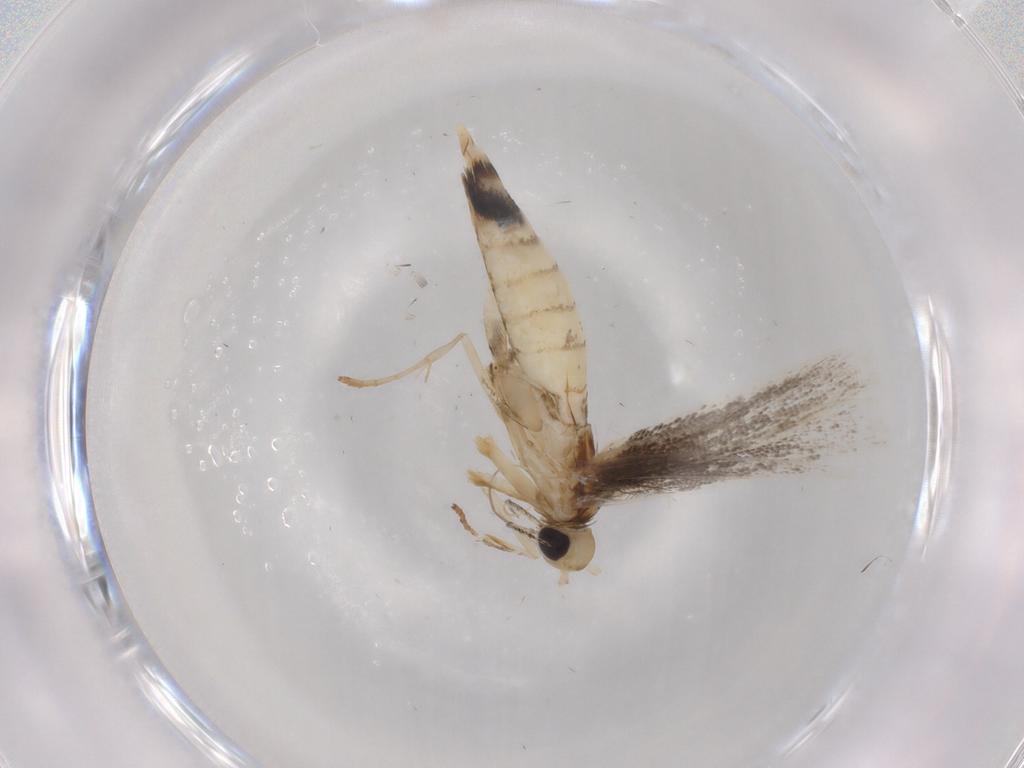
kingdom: Animalia
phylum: Arthropoda
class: Insecta
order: Lepidoptera
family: Gracillariidae
